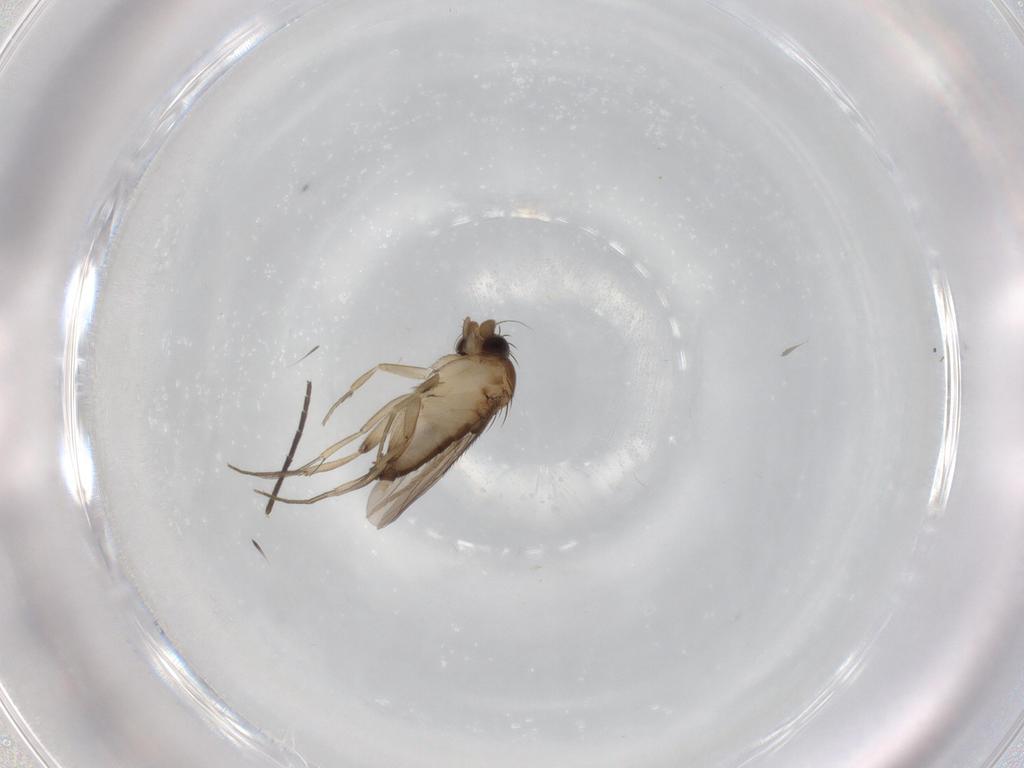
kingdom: Animalia
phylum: Arthropoda
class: Insecta
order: Diptera
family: Phoridae
